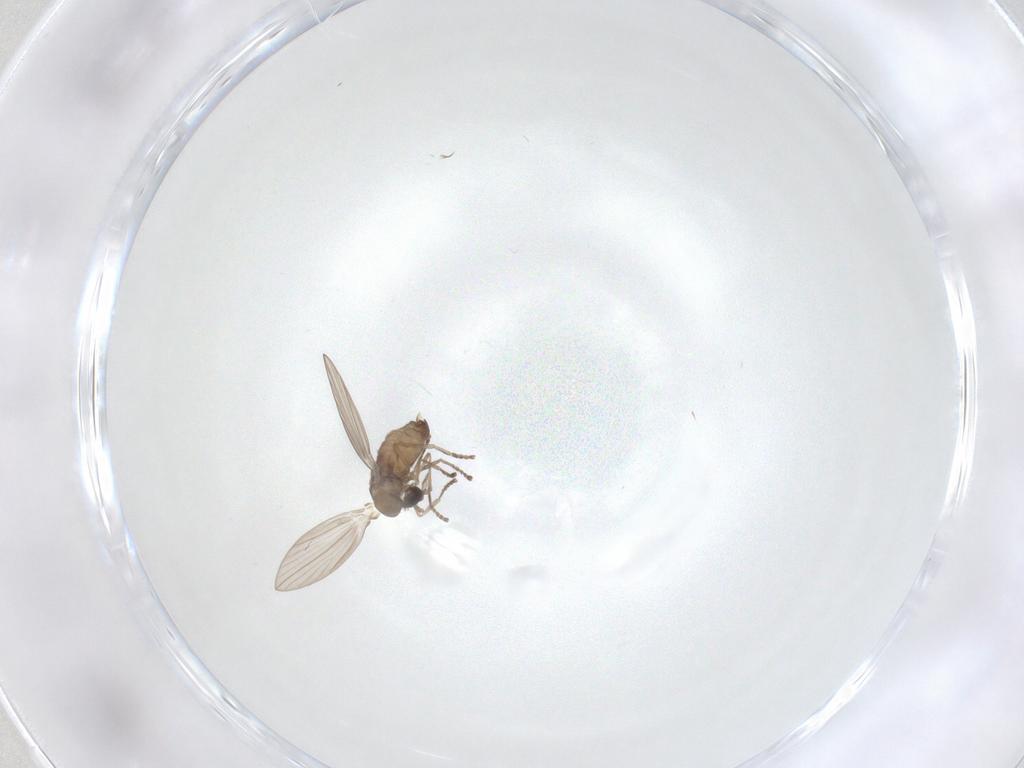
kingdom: Animalia
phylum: Arthropoda
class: Insecta
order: Diptera
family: Psychodidae
